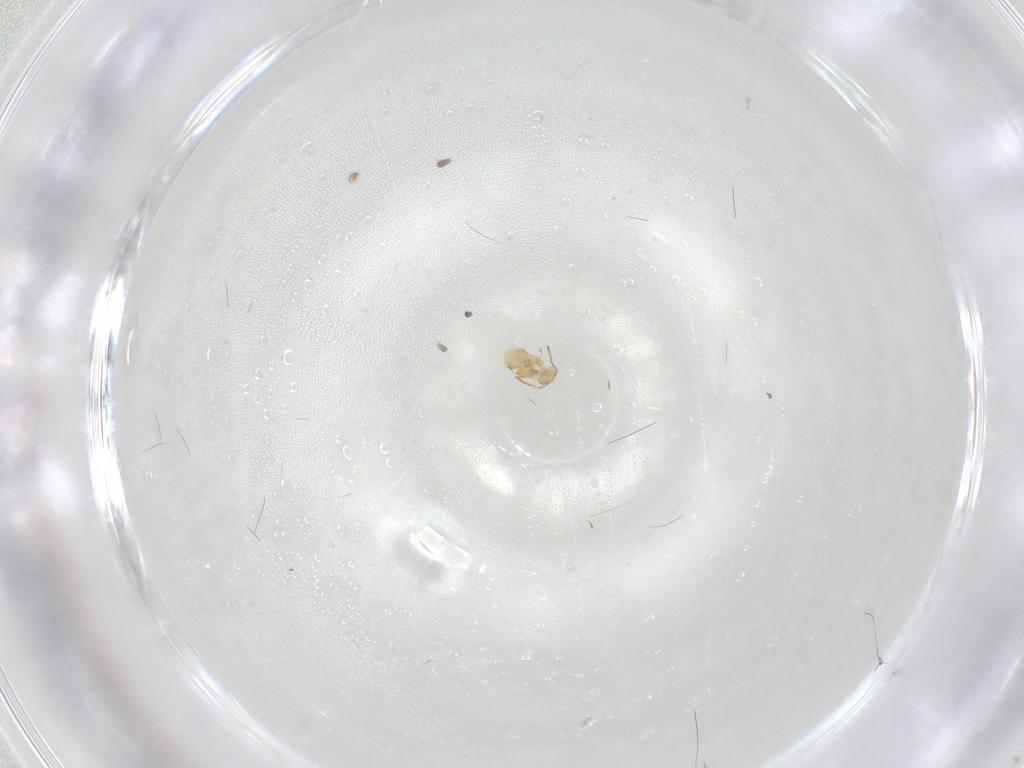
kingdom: Animalia
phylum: Arthropoda
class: Collembola
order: Symphypleona
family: Bourletiellidae
